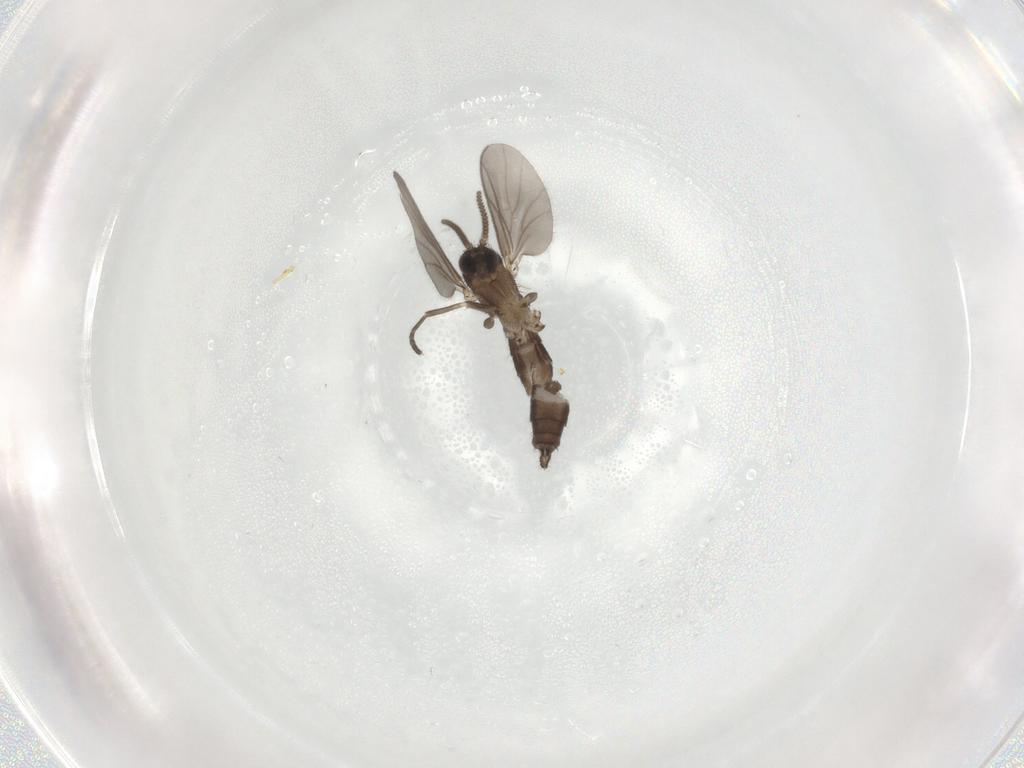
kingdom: Animalia
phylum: Arthropoda
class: Insecta
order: Diptera
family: Mycetophilidae
